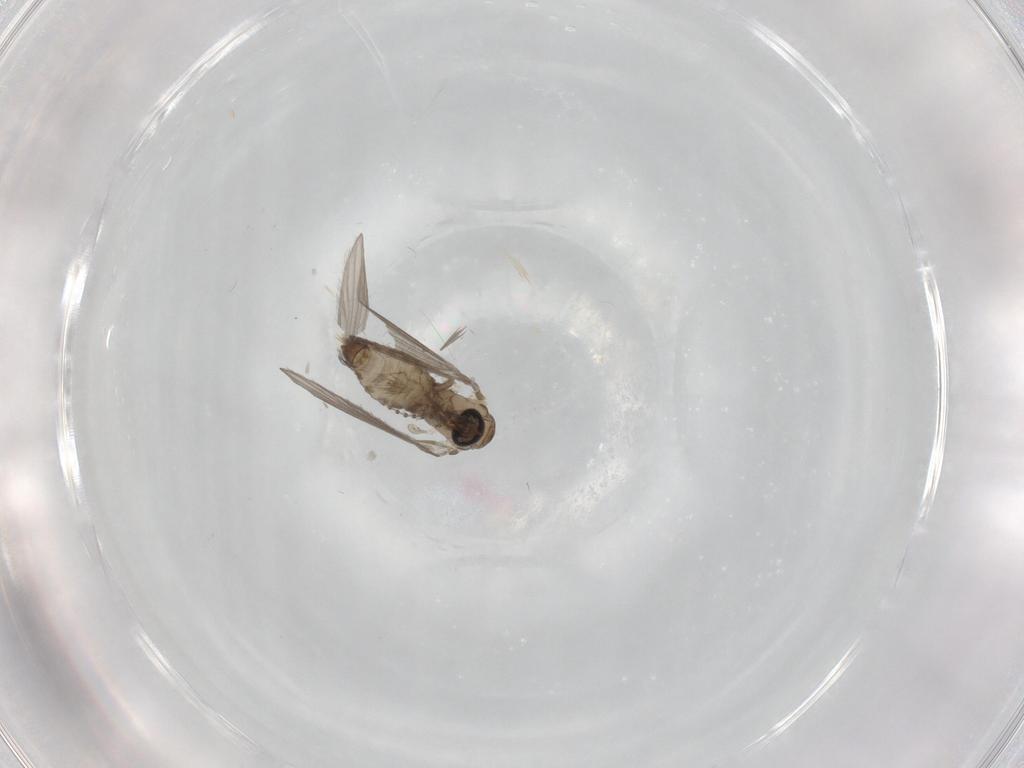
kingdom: Animalia
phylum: Arthropoda
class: Insecta
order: Diptera
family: Psychodidae
